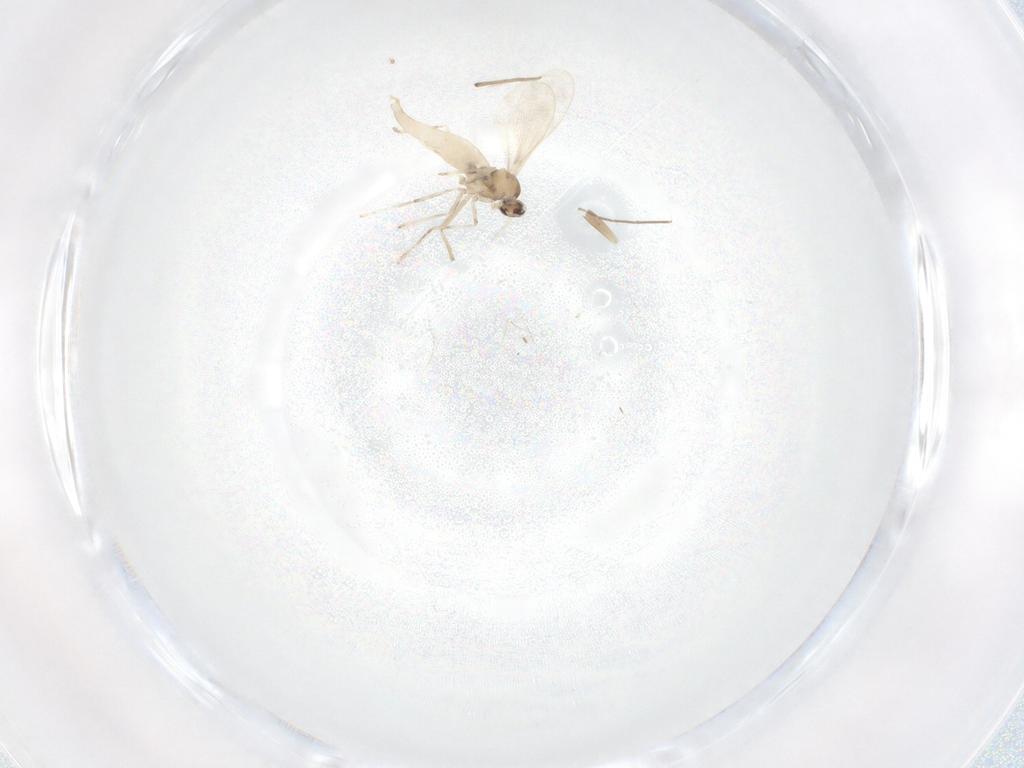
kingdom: Animalia
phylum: Arthropoda
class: Insecta
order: Diptera
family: Cecidomyiidae
